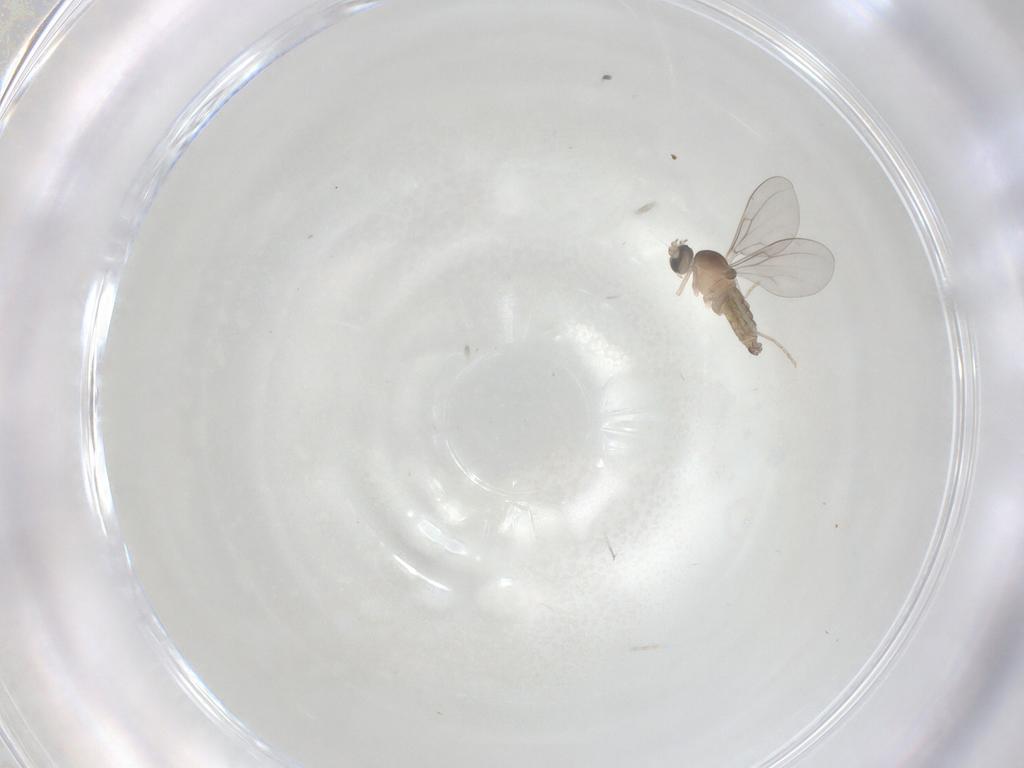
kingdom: Animalia
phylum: Arthropoda
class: Insecta
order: Diptera
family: Cecidomyiidae
